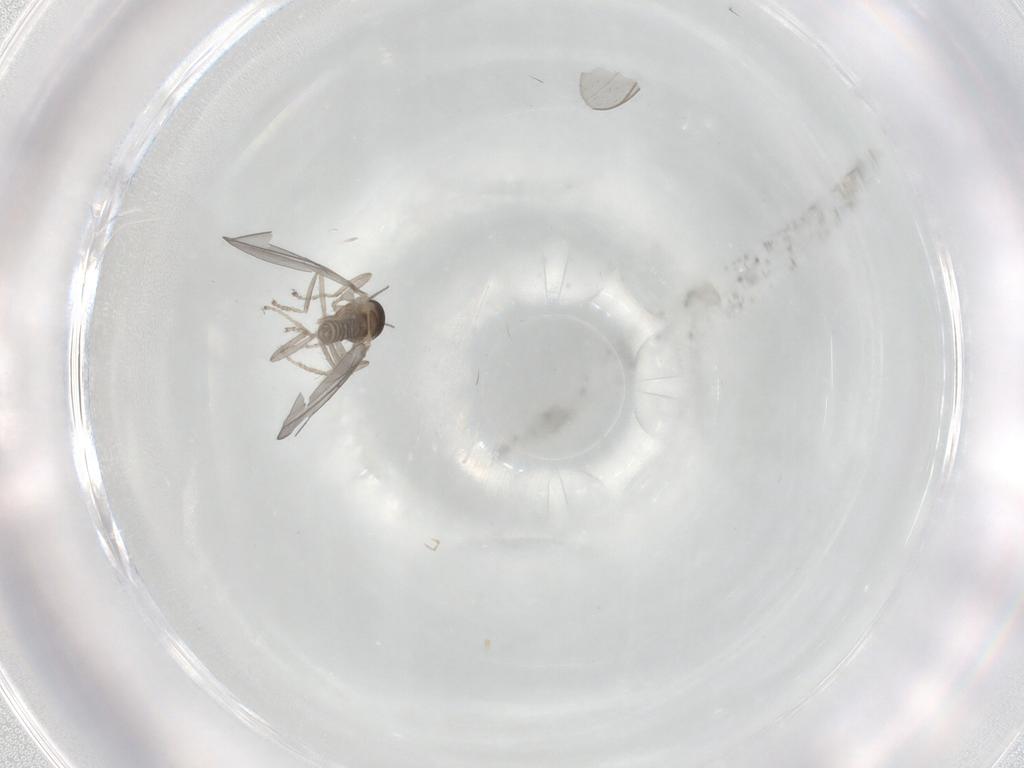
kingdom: Animalia
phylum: Arthropoda
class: Insecta
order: Diptera
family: Cecidomyiidae
